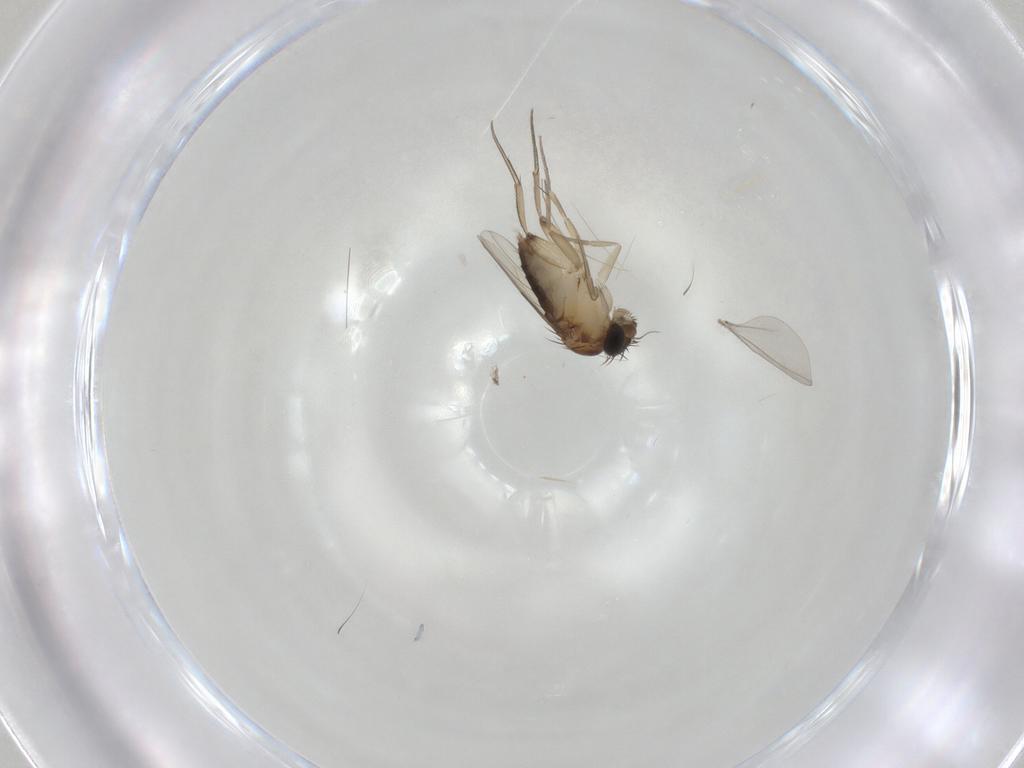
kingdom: Animalia
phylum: Arthropoda
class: Insecta
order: Diptera
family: Phoridae
